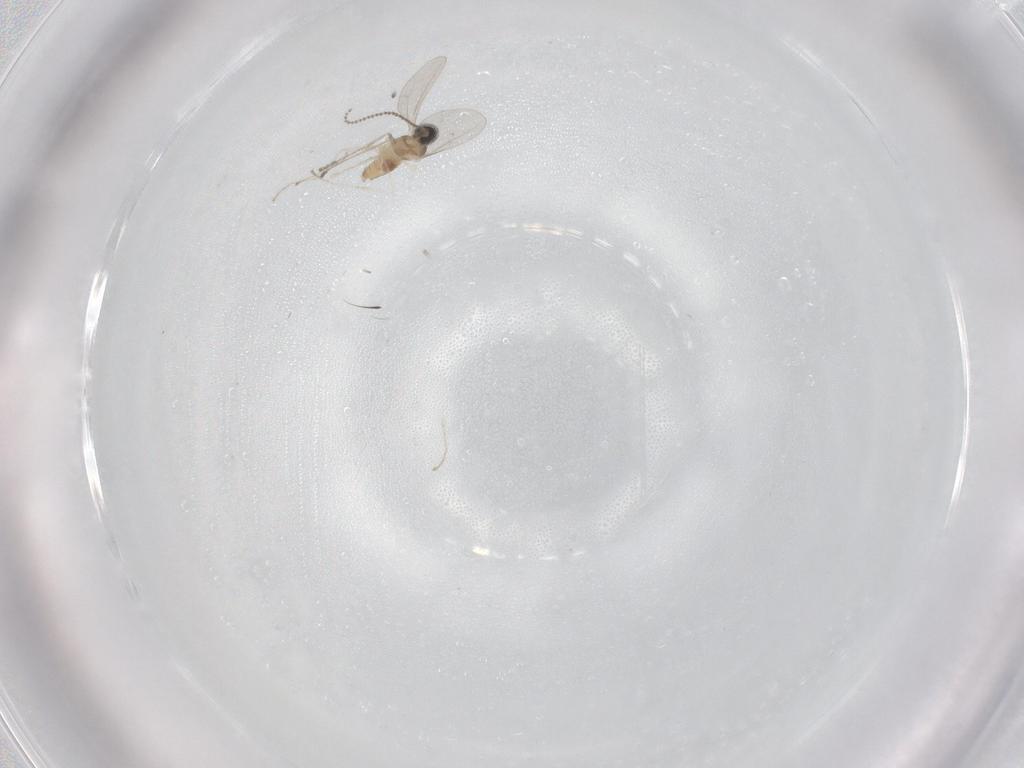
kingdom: Animalia
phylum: Arthropoda
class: Insecta
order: Diptera
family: Cecidomyiidae
